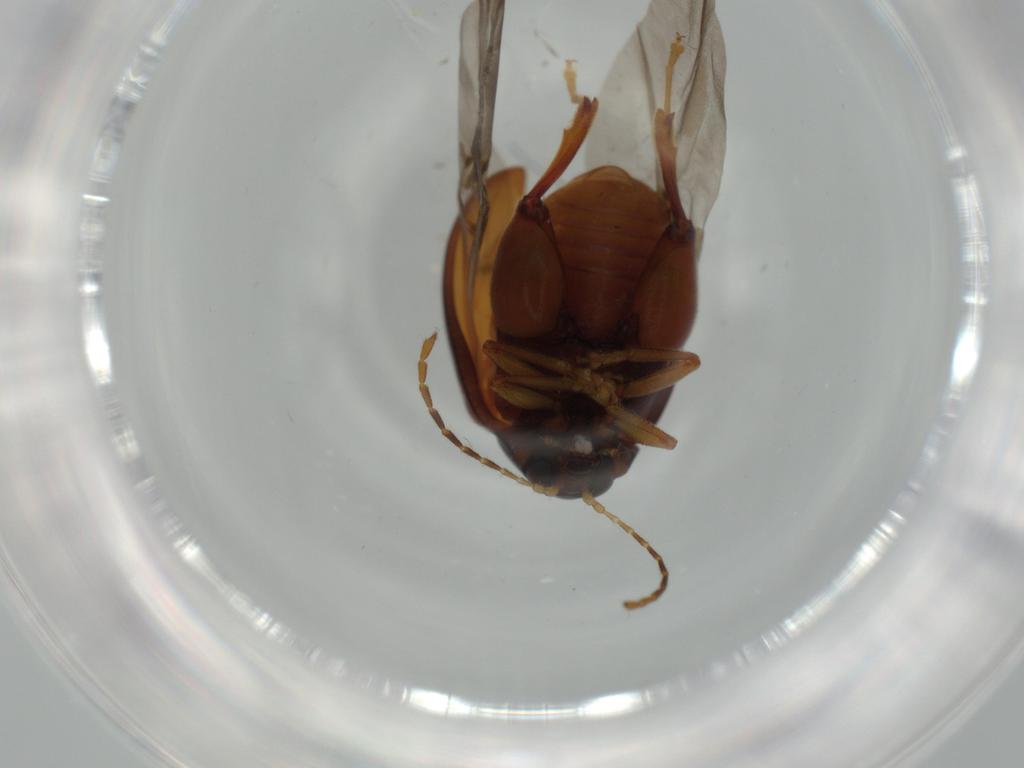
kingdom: Animalia
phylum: Arthropoda
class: Insecta
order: Coleoptera
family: Chrysomelidae
